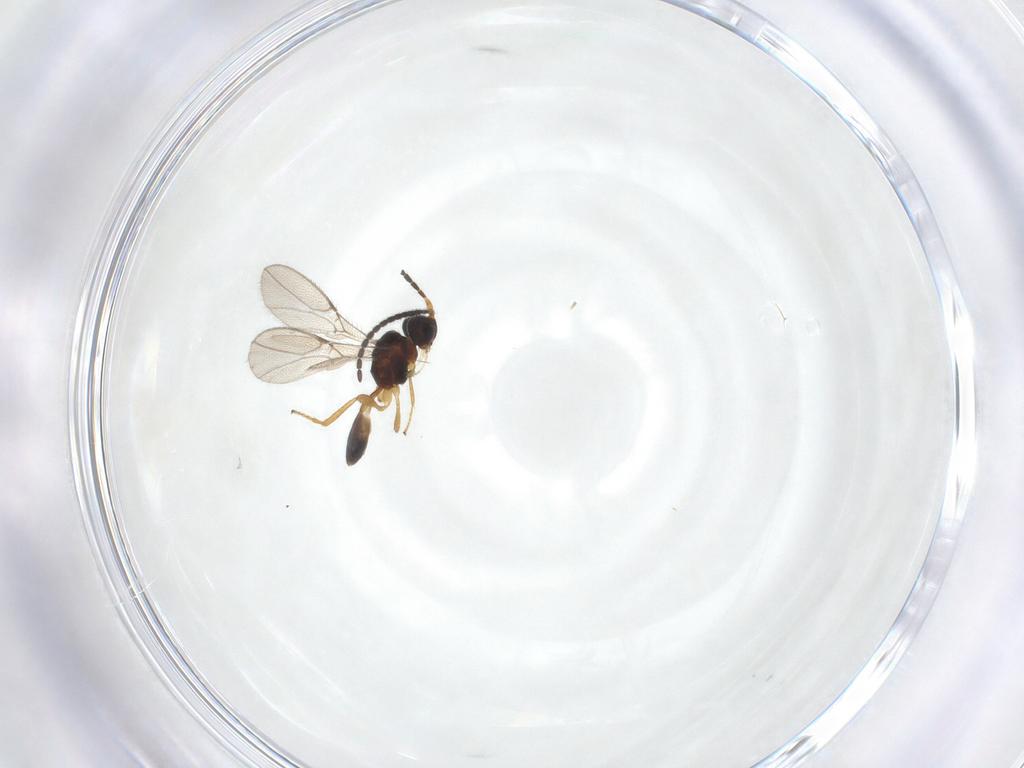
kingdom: Animalia
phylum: Arthropoda
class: Insecta
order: Hymenoptera
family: Braconidae
